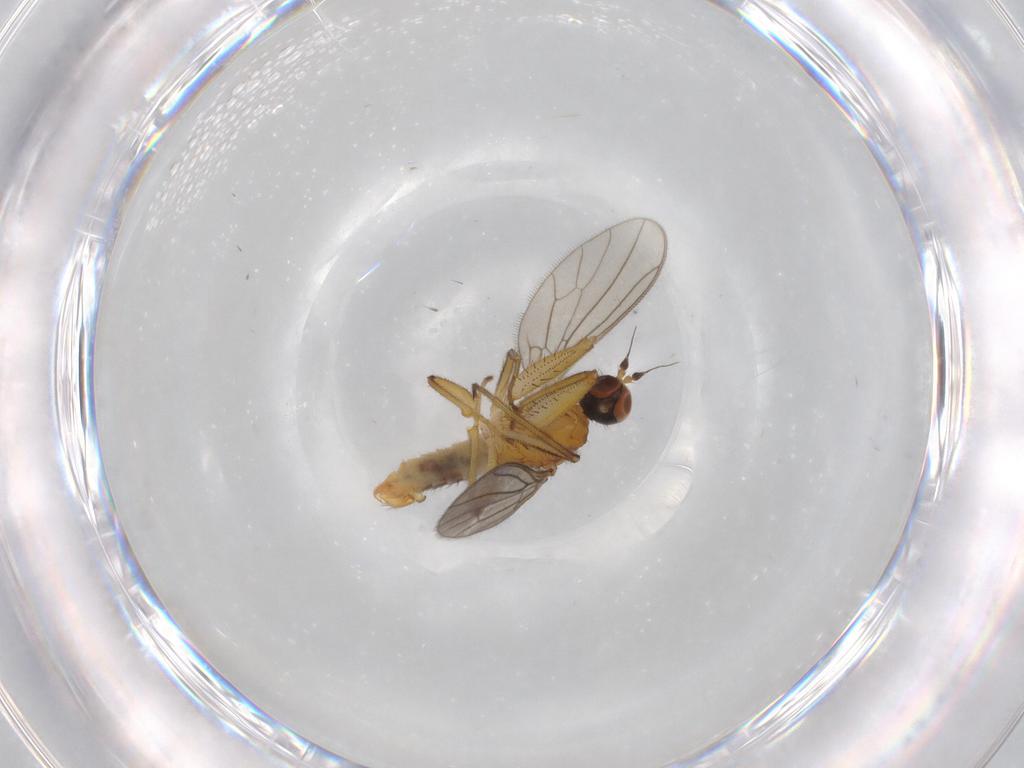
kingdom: Animalia
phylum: Arthropoda
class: Insecta
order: Diptera
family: Empididae
